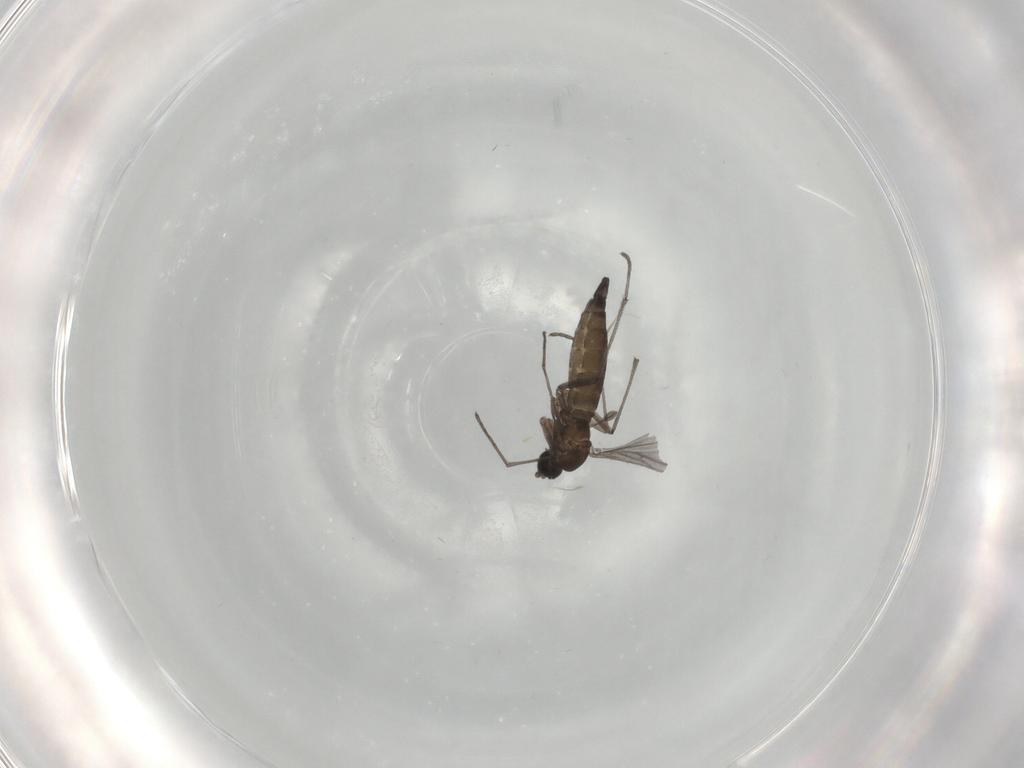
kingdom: Animalia
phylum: Arthropoda
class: Insecta
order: Diptera
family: Sciaridae
